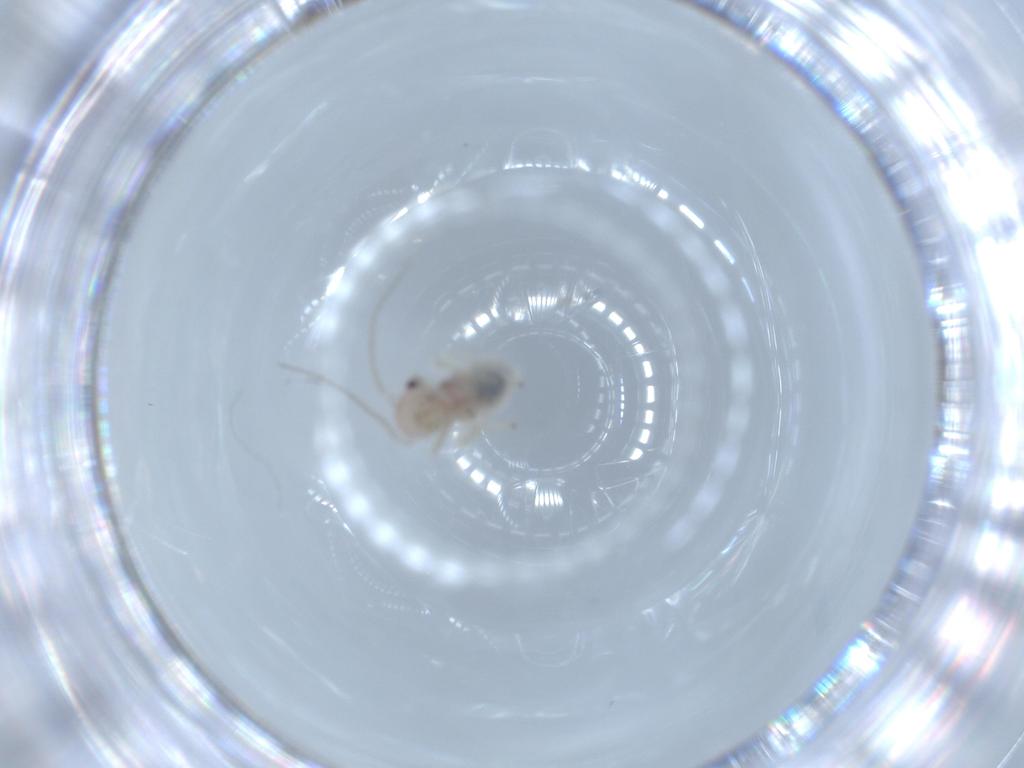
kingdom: Animalia
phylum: Arthropoda
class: Insecta
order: Psocodea
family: Amphipsocidae
